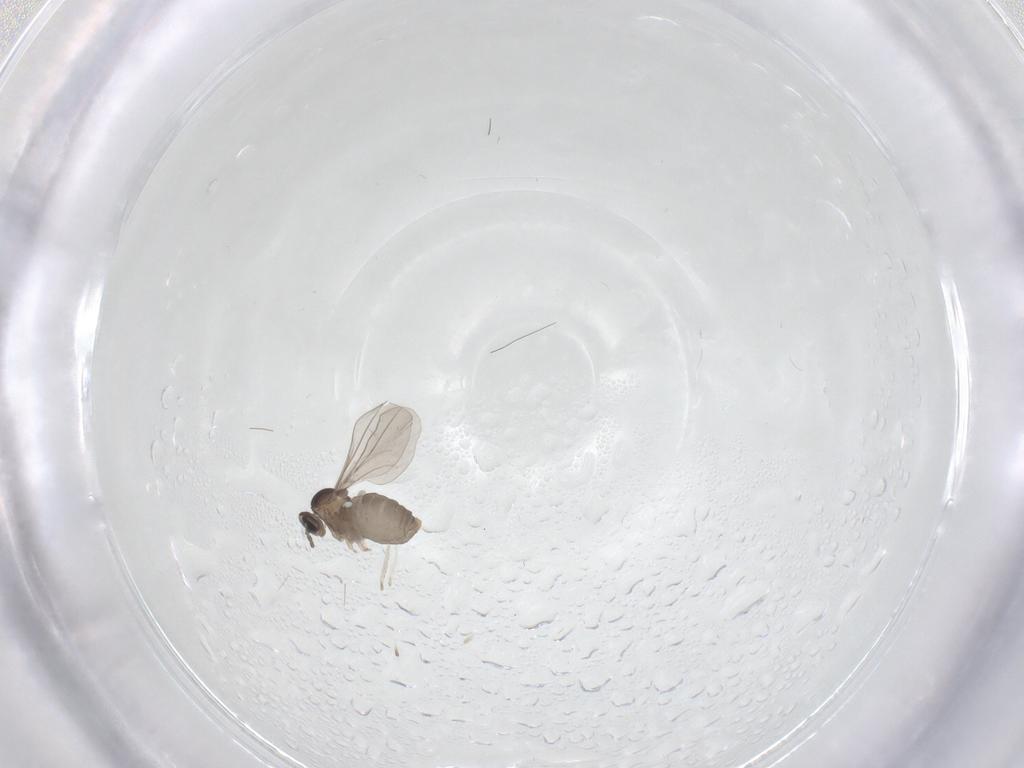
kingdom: Animalia
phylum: Arthropoda
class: Insecta
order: Diptera
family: Chironomidae
